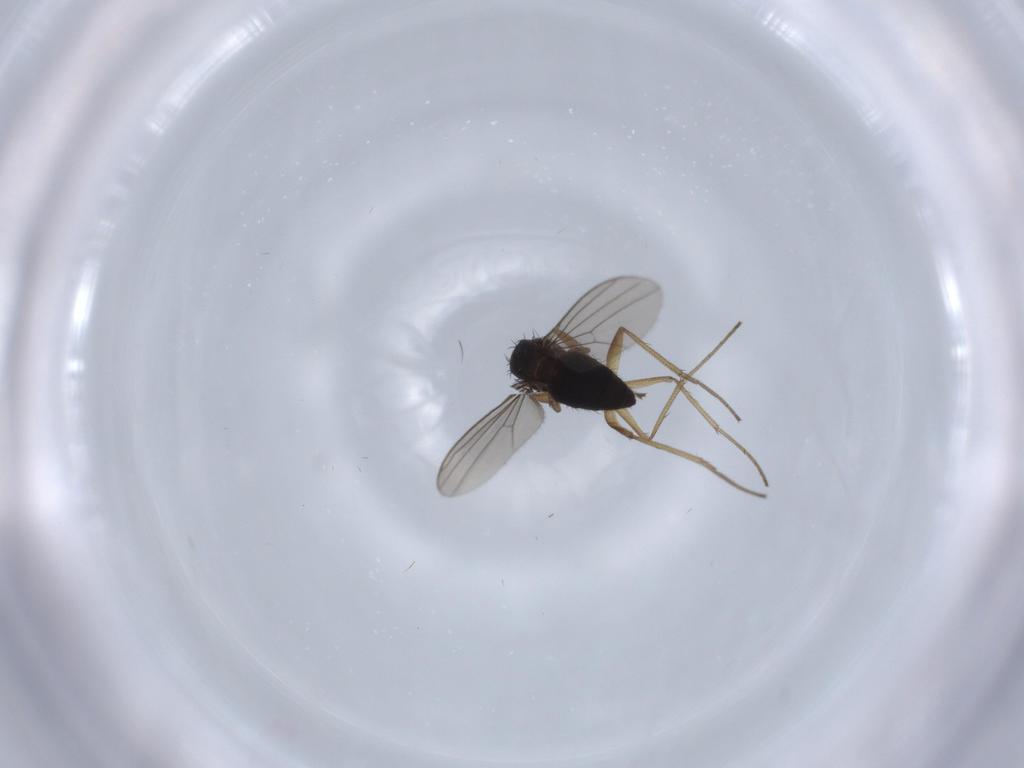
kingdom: Animalia
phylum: Arthropoda
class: Insecta
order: Diptera
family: Dolichopodidae
